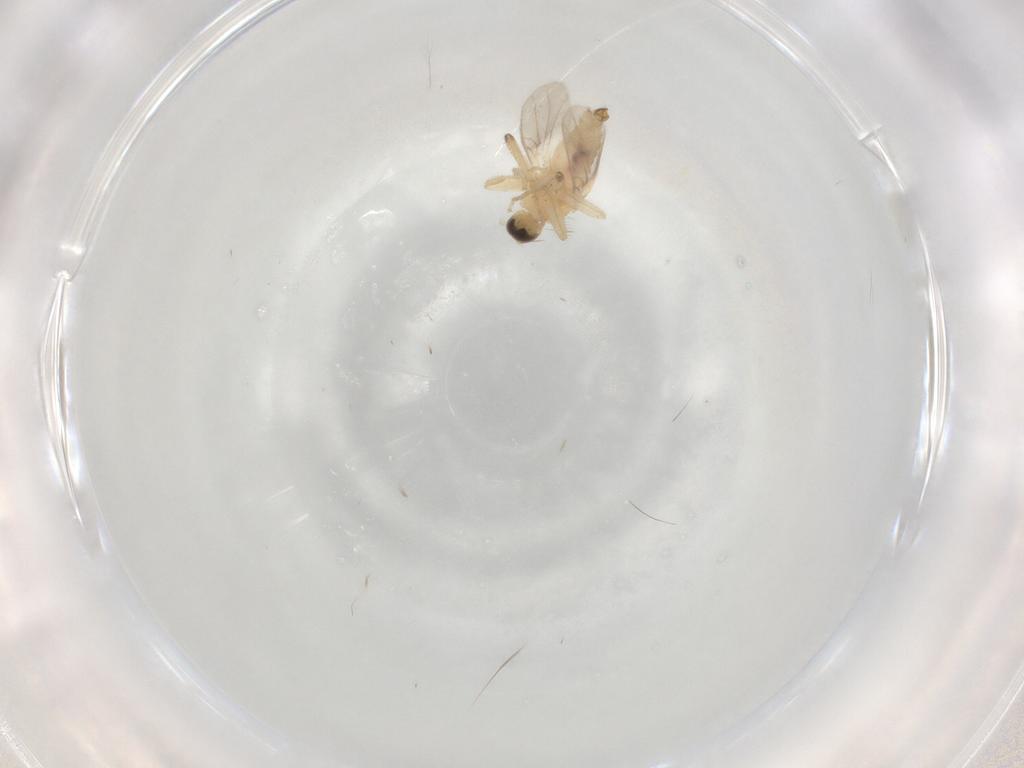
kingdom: Animalia
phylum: Arthropoda
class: Insecta
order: Diptera
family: Hybotidae
